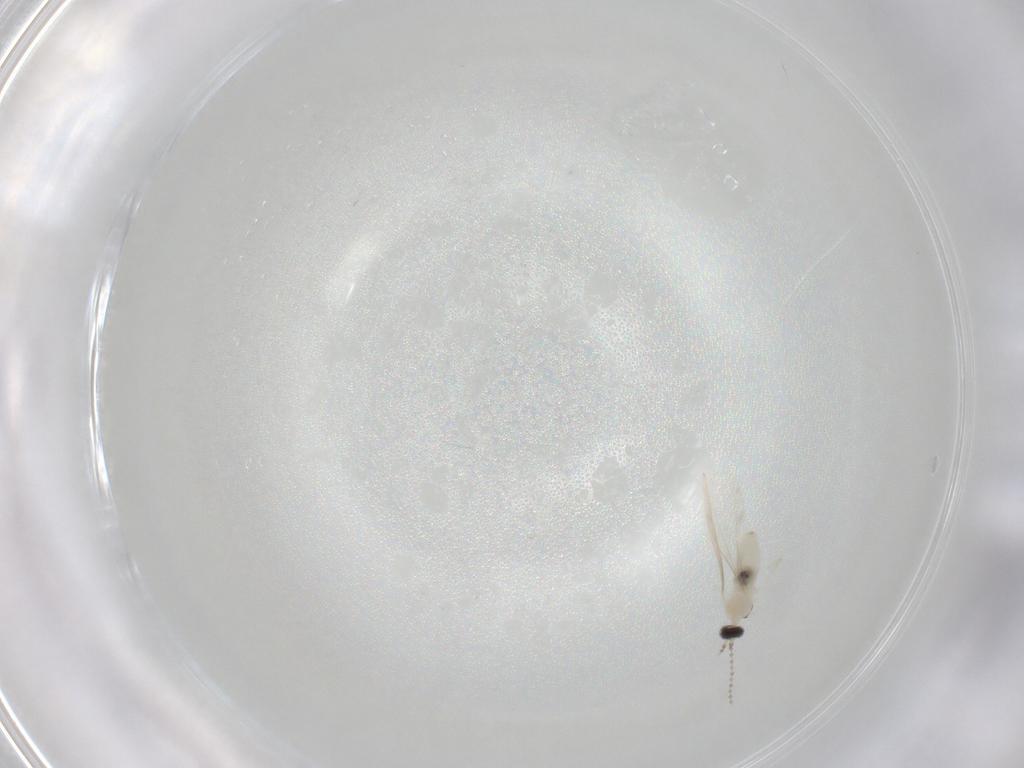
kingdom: Animalia
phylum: Arthropoda
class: Insecta
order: Diptera
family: Cecidomyiidae
